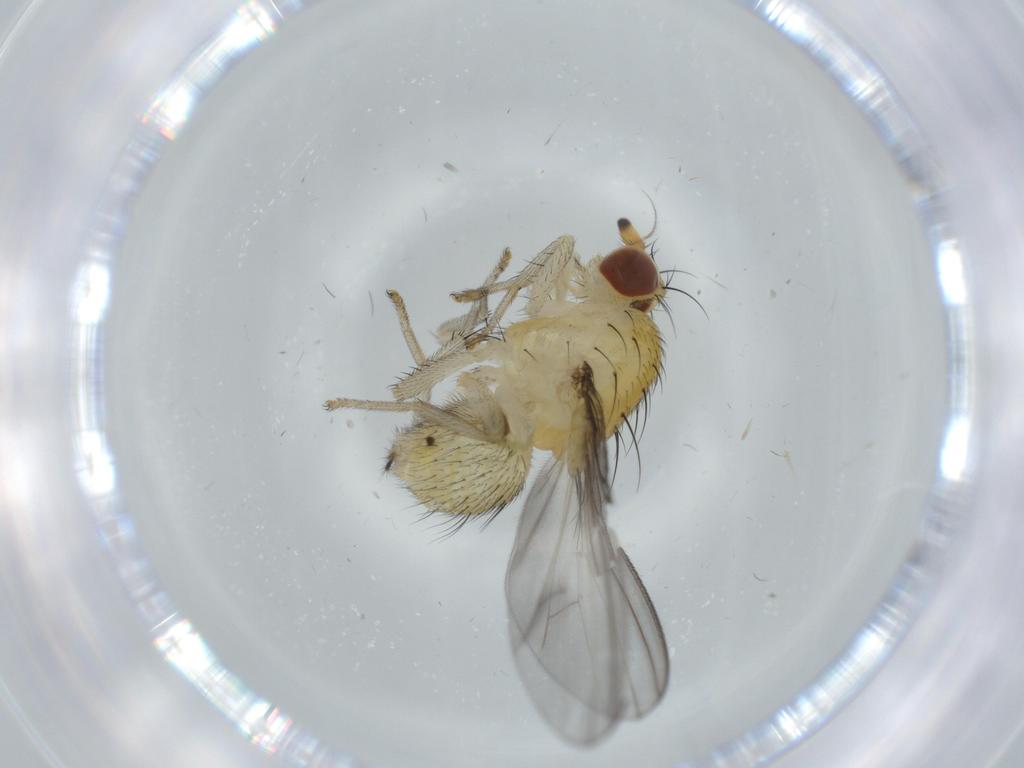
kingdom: Animalia
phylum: Arthropoda
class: Insecta
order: Diptera
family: Lauxaniidae
